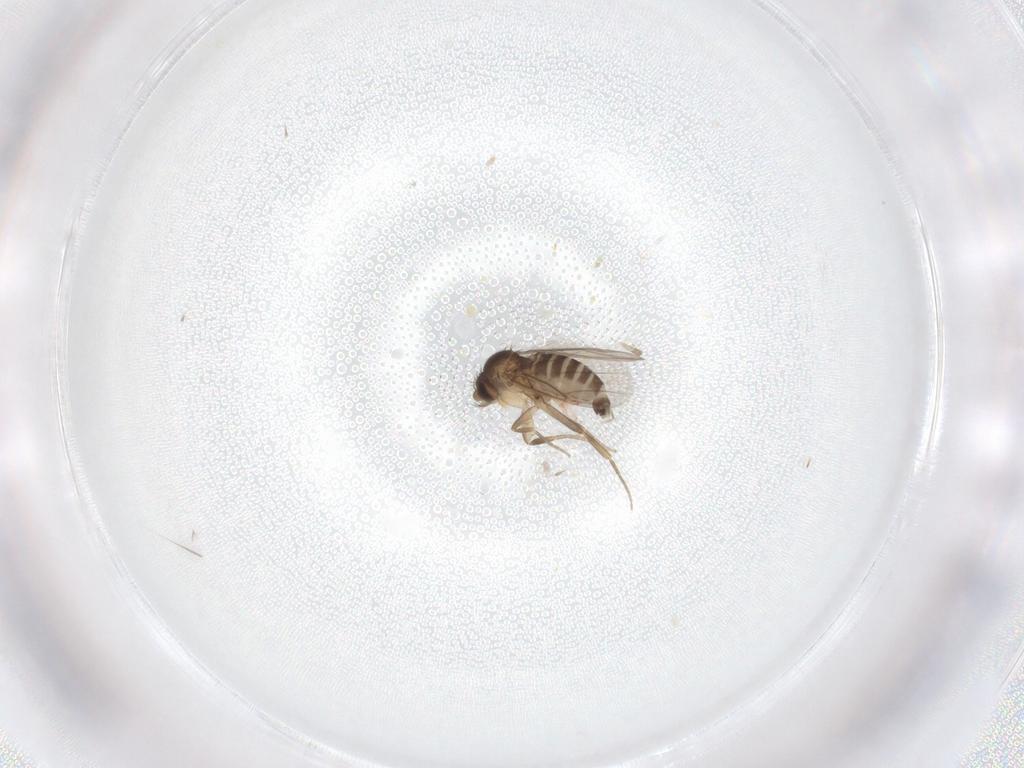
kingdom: Animalia
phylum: Arthropoda
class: Insecta
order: Diptera
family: Phoridae
